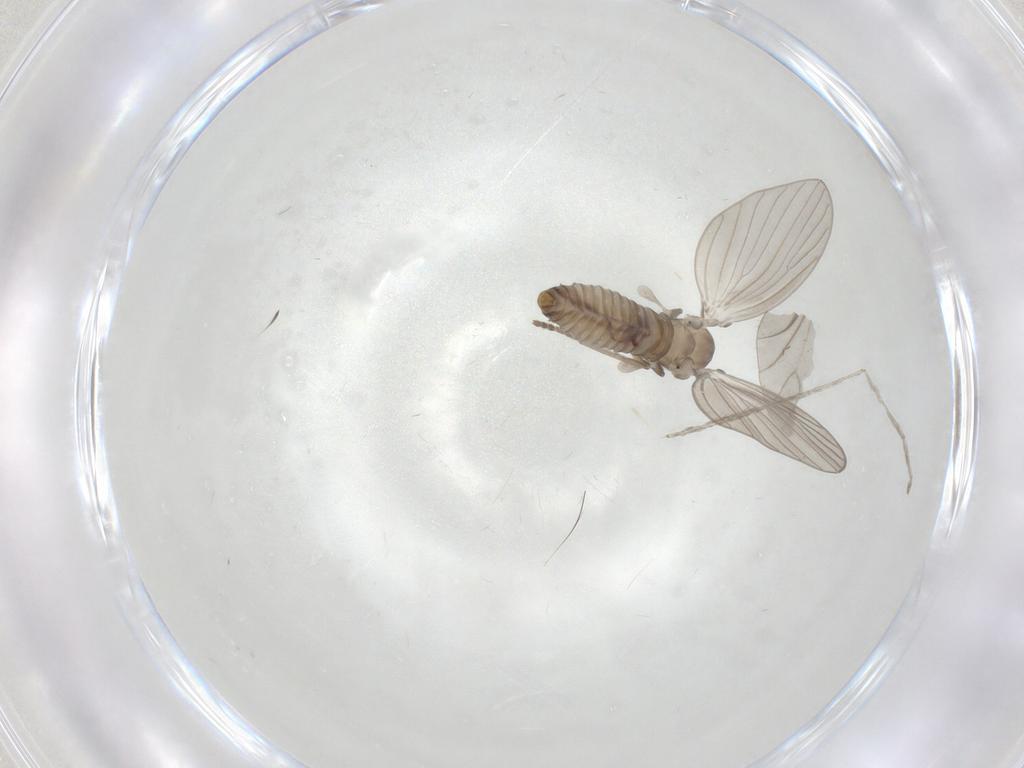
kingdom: Animalia
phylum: Arthropoda
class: Insecta
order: Diptera
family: Psychodidae
